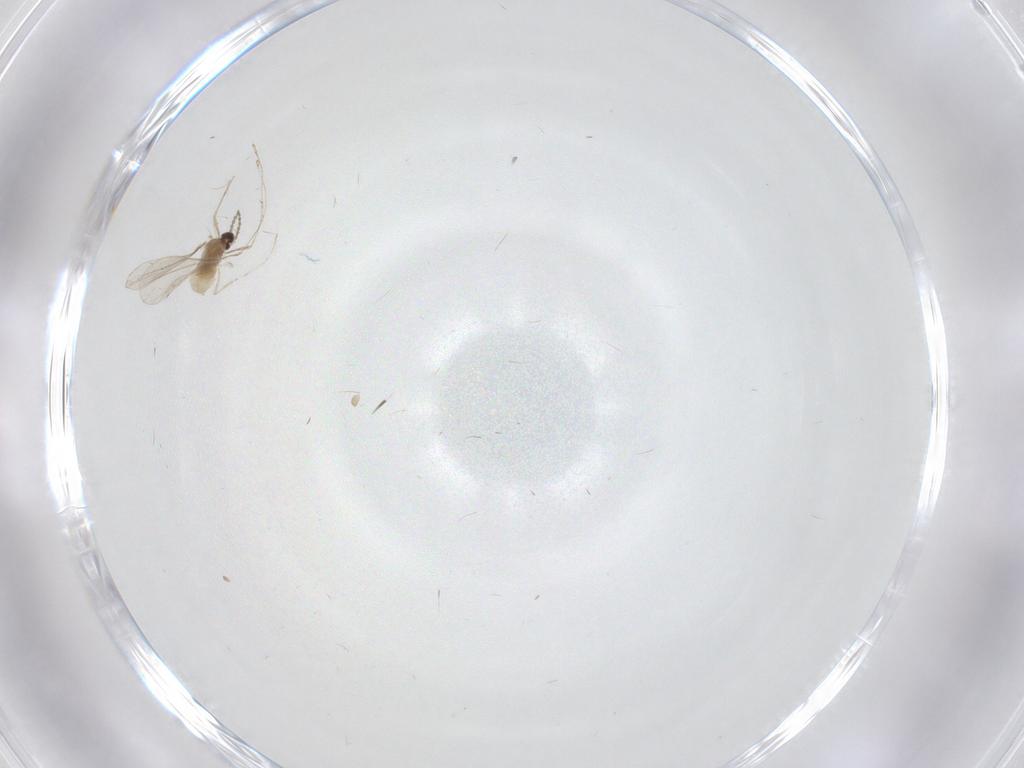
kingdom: Animalia
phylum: Arthropoda
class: Insecta
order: Diptera
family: Cecidomyiidae
